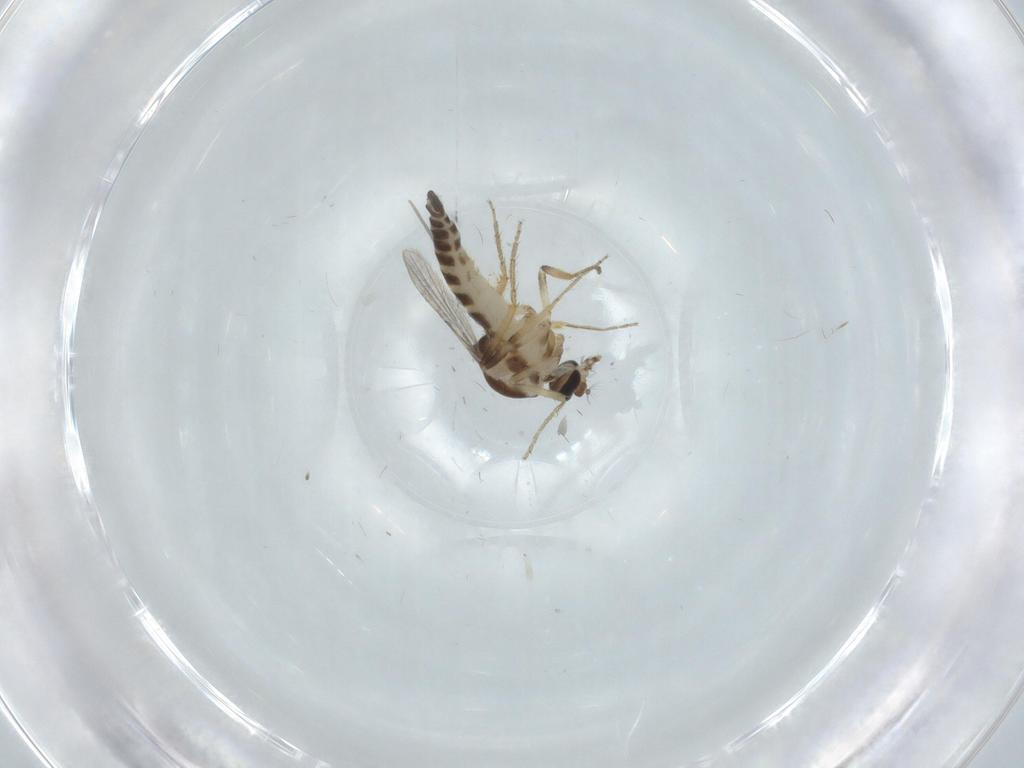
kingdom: Animalia
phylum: Arthropoda
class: Insecta
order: Diptera
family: Ceratopogonidae
